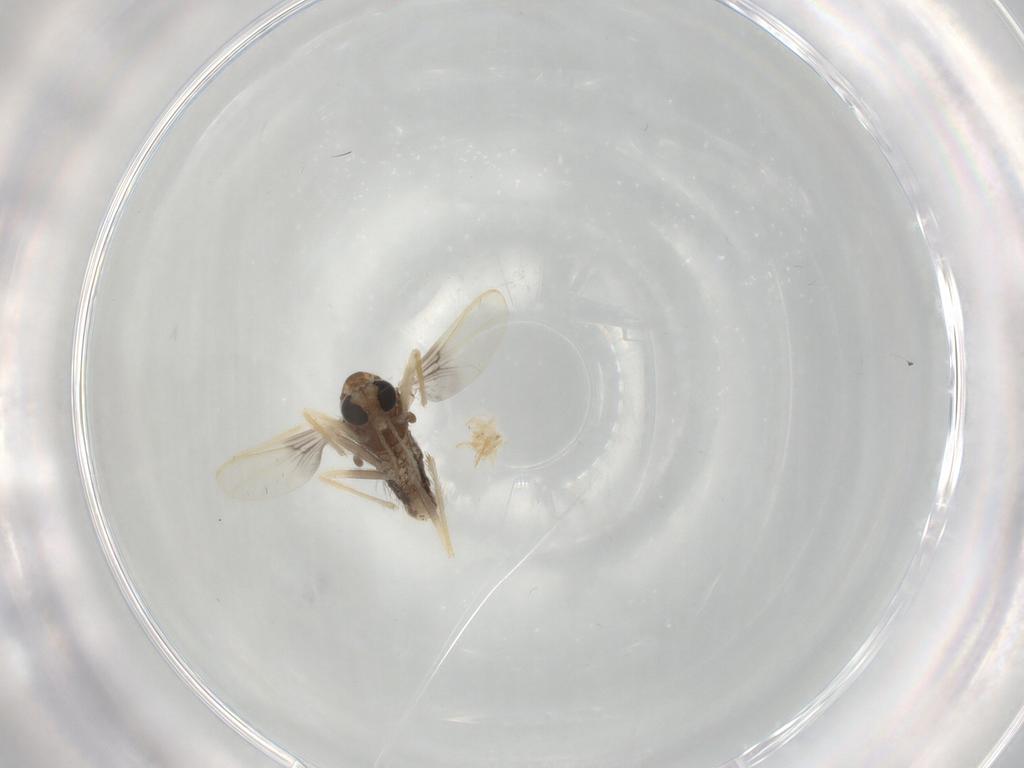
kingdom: Animalia
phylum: Arthropoda
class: Insecta
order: Diptera
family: Chironomidae
